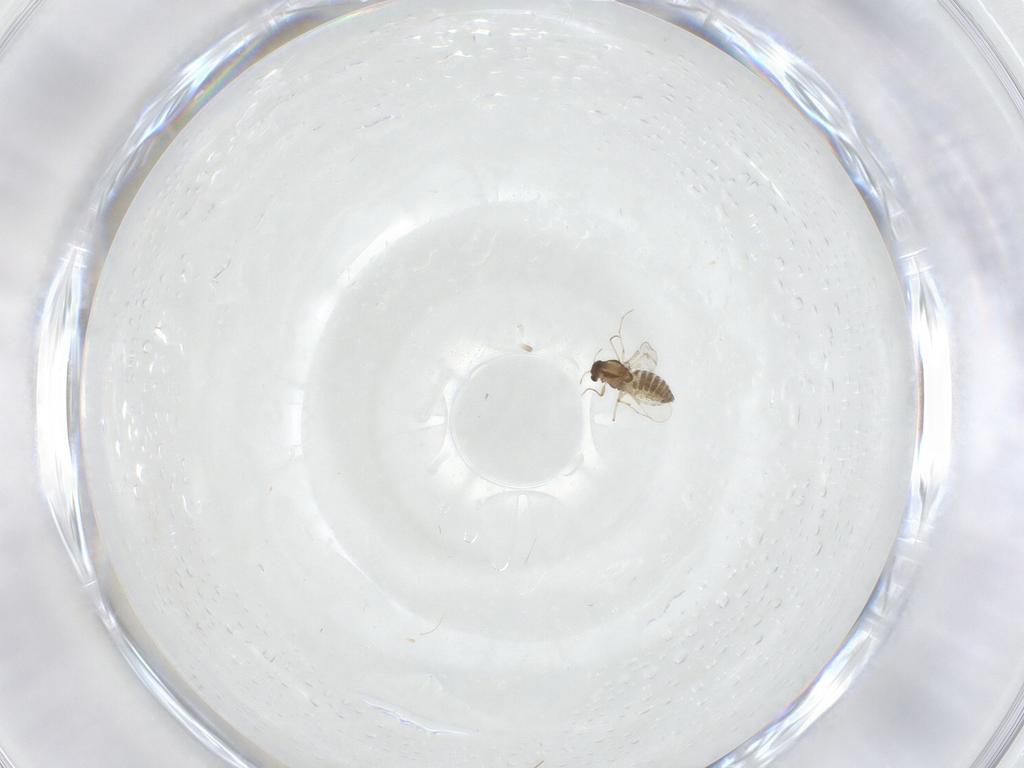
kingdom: Animalia
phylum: Arthropoda
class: Insecta
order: Diptera
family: Chironomidae
